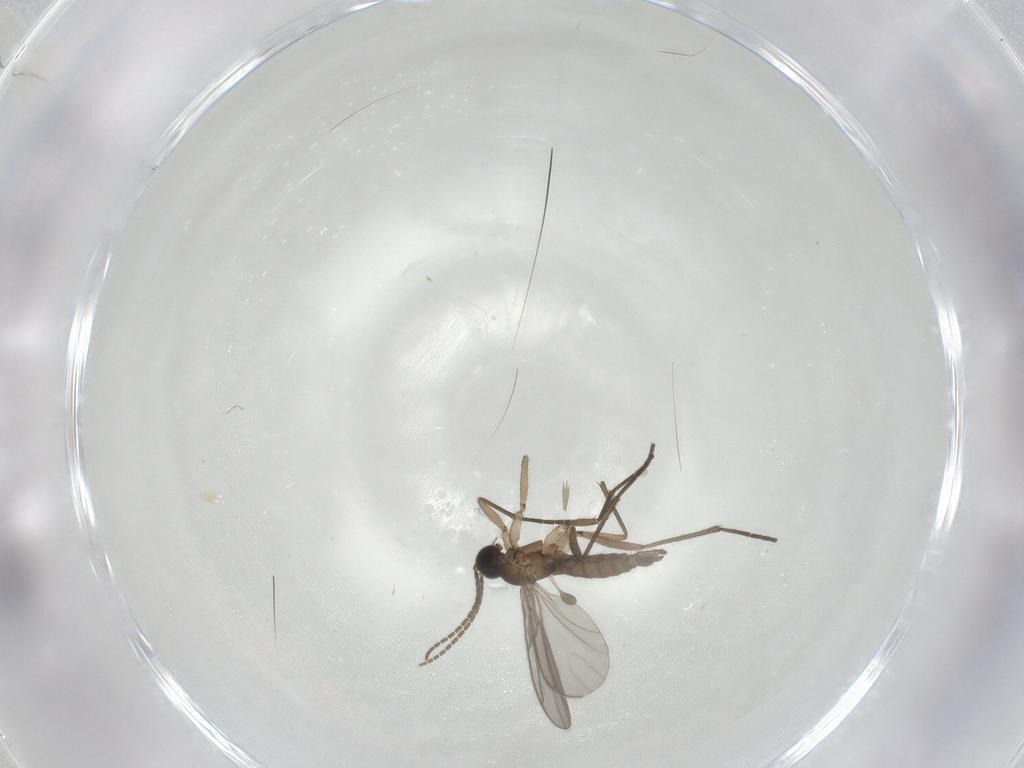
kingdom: Animalia
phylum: Arthropoda
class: Insecta
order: Diptera
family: Sciaridae
